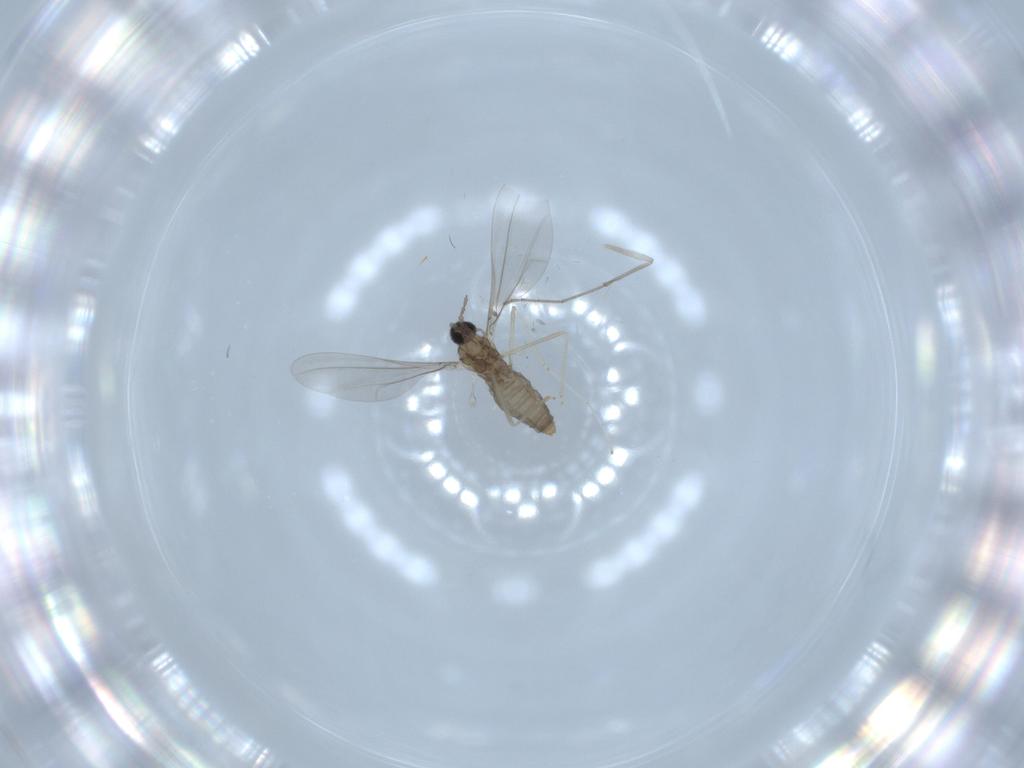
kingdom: Animalia
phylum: Arthropoda
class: Insecta
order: Diptera
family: Cecidomyiidae
